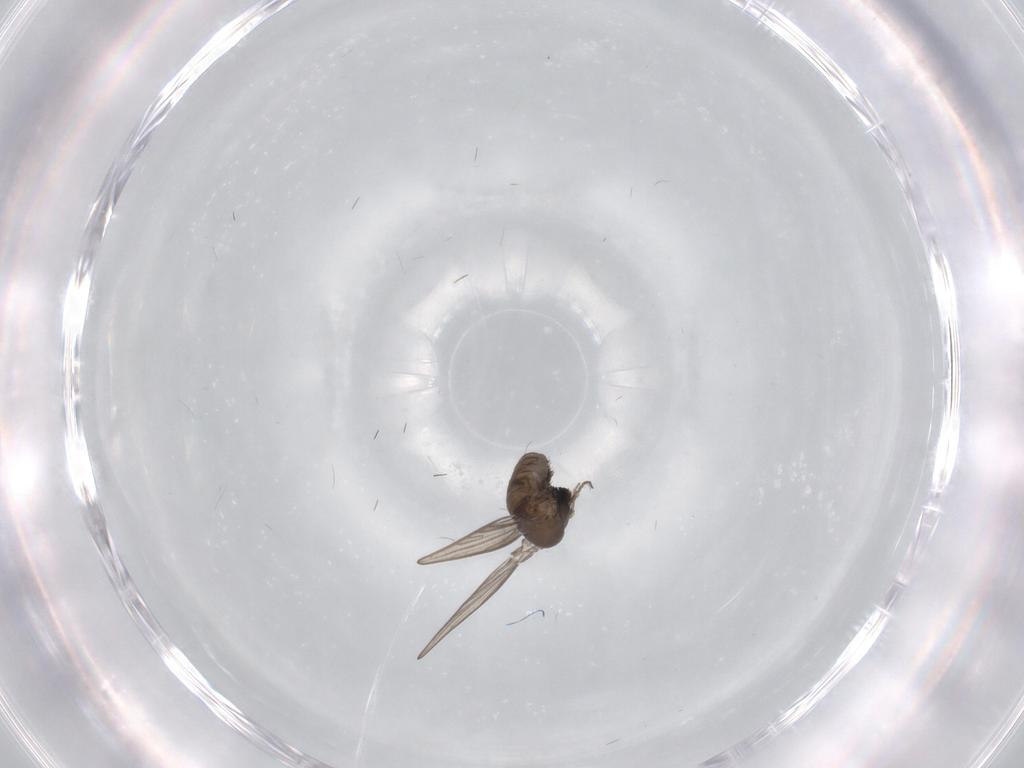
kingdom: Animalia
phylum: Arthropoda
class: Insecta
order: Diptera
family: Psychodidae
